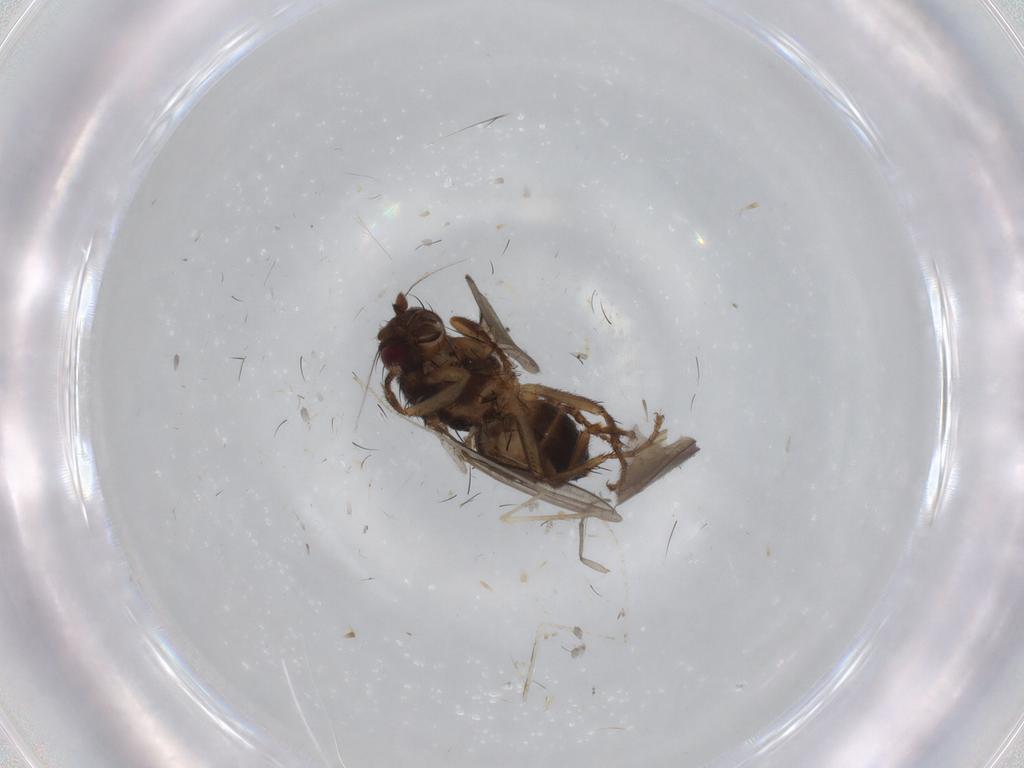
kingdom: Animalia
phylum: Arthropoda
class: Insecta
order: Diptera
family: Sphaeroceridae
